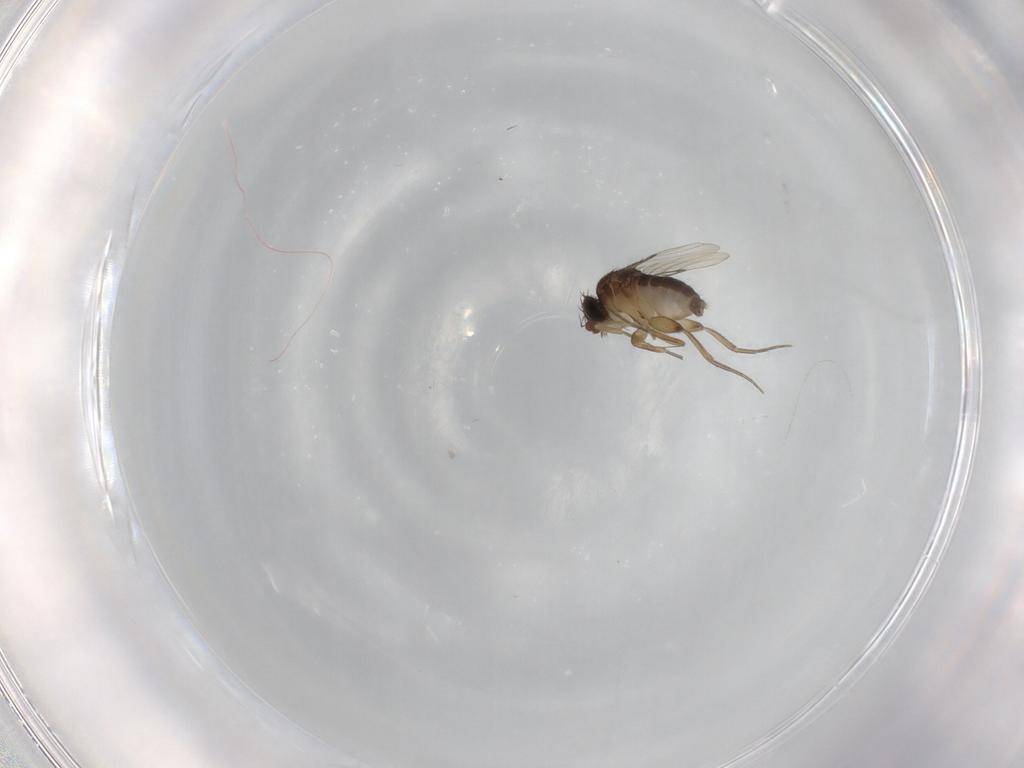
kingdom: Animalia
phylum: Arthropoda
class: Insecta
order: Diptera
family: Phoridae
